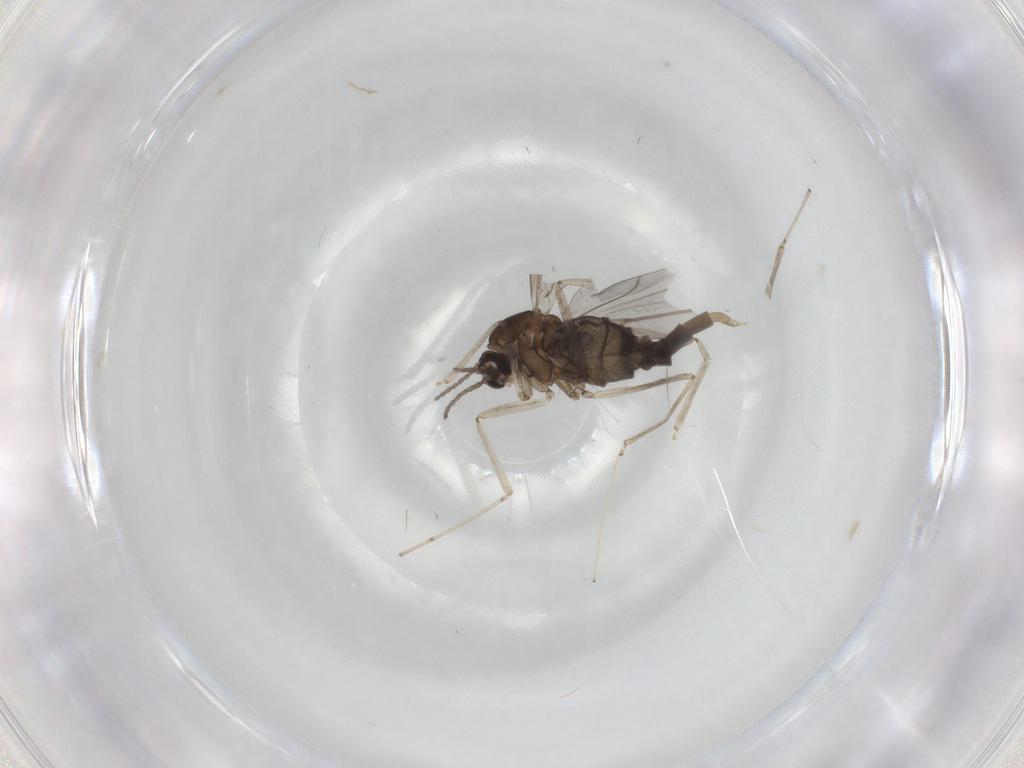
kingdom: Animalia
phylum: Arthropoda
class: Insecta
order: Diptera
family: Cecidomyiidae
